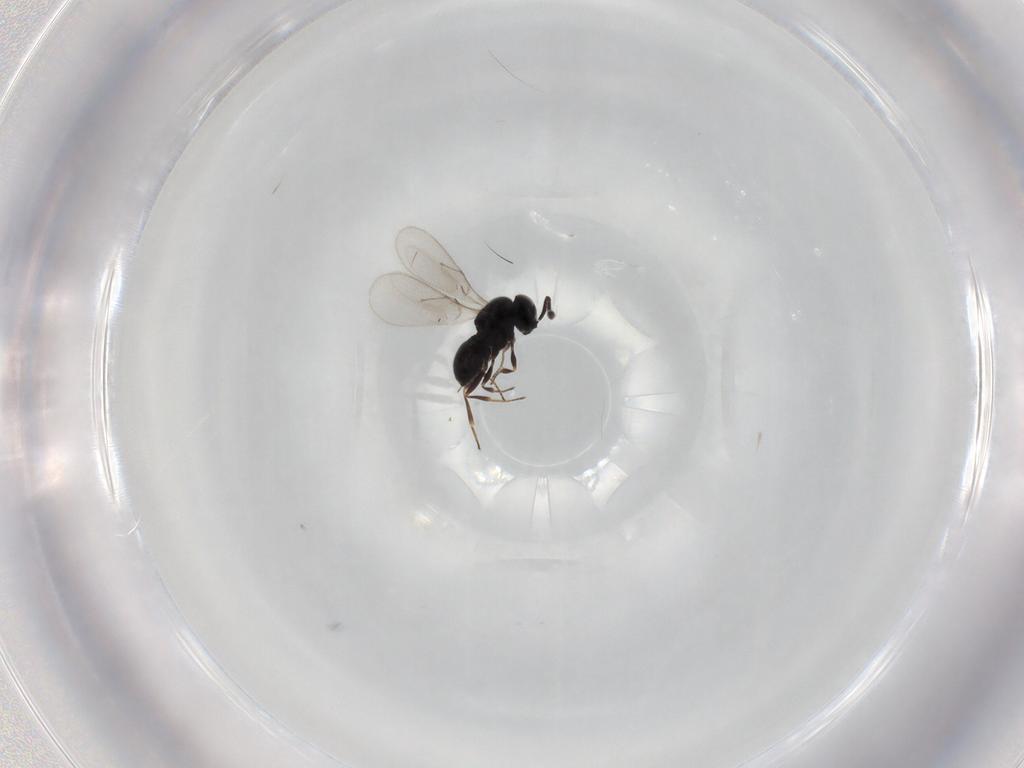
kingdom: Animalia
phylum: Arthropoda
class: Insecta
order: Hymenoptera
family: Scelionidae
